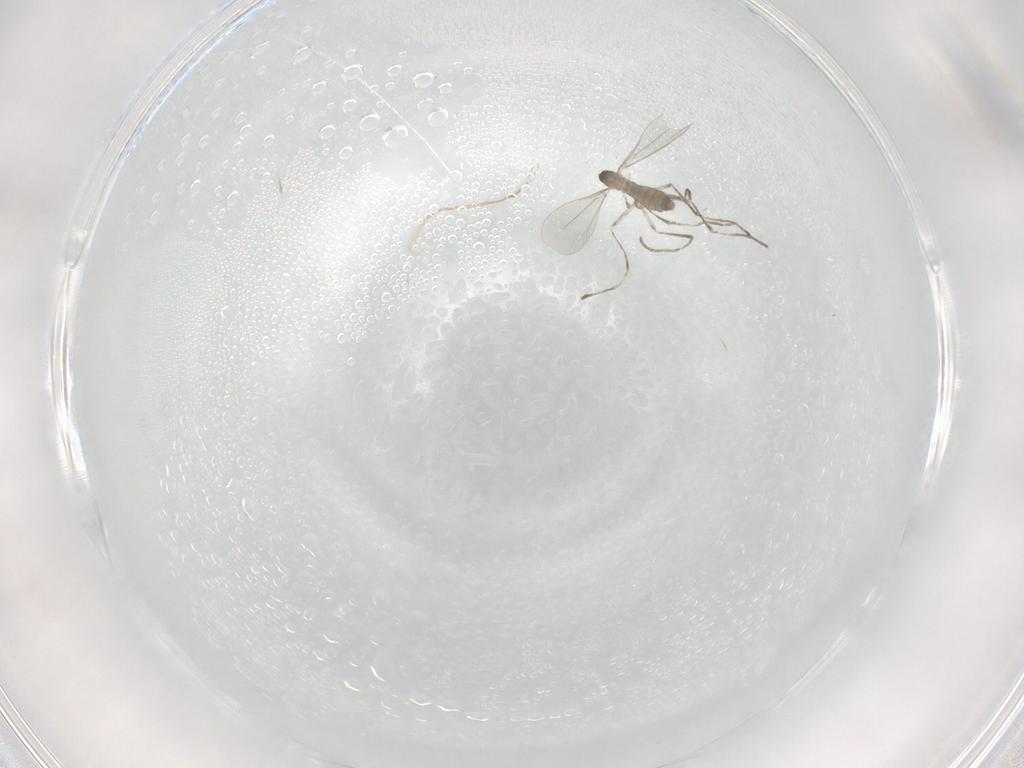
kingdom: Animalia
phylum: Arthropoda
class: Insecta
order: Diptera
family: Cecidomyiidae
